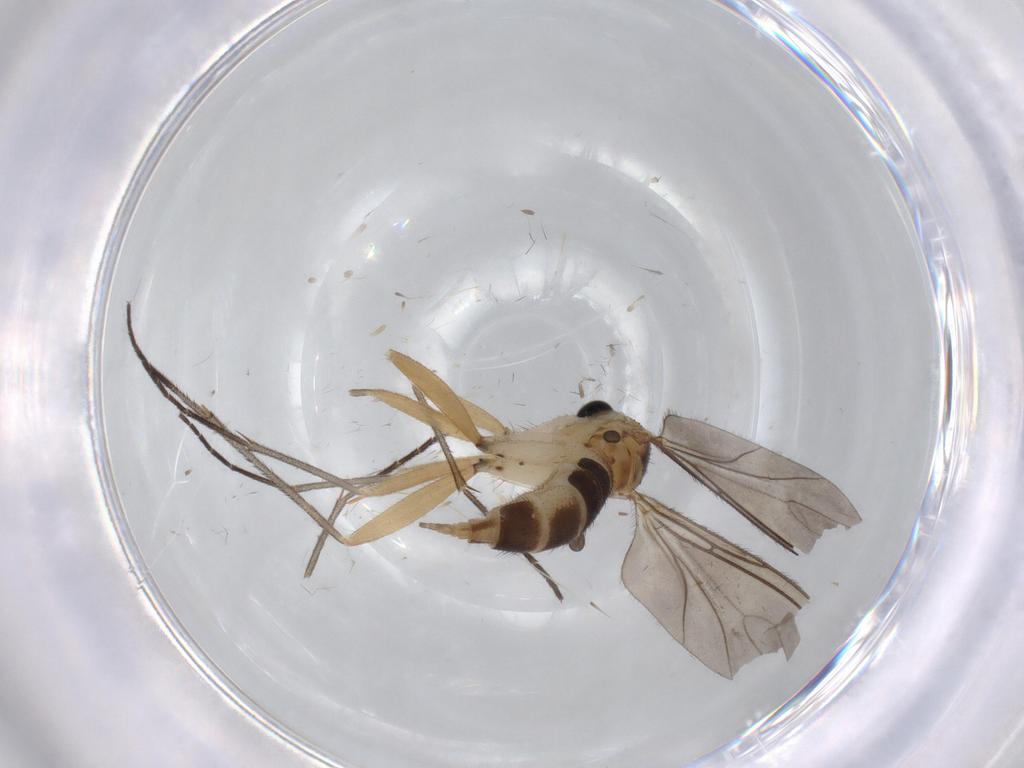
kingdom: Animalia
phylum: Arthropoda
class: Insecta
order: Diptera
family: Sciaridae
